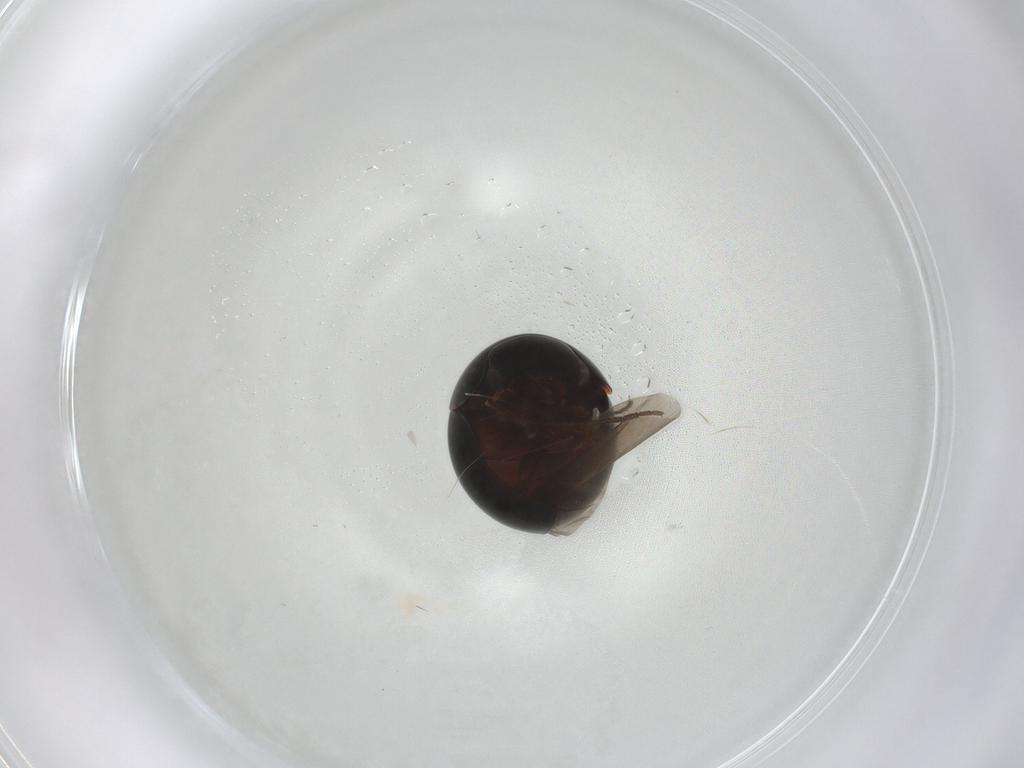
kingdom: Animalia
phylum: Arthropoda
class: Insecta
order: Coleoptera
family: Leiodidae
